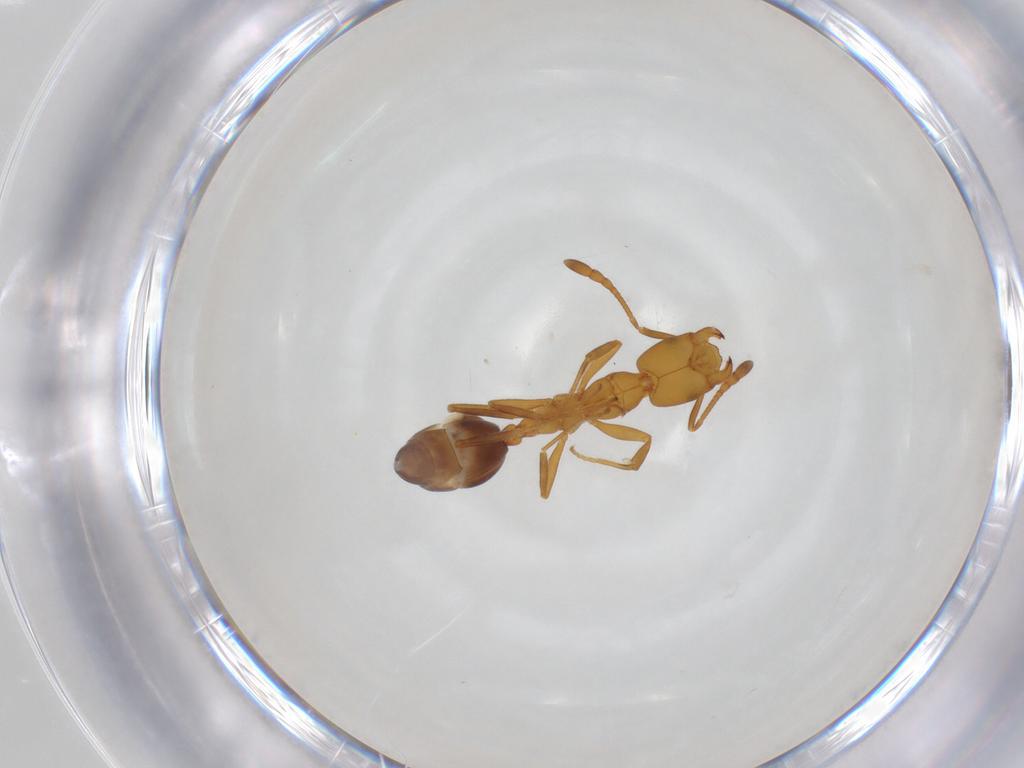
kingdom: Animalia
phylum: Arthropoda
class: Insecta
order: Hymenoptera
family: Formicidae
